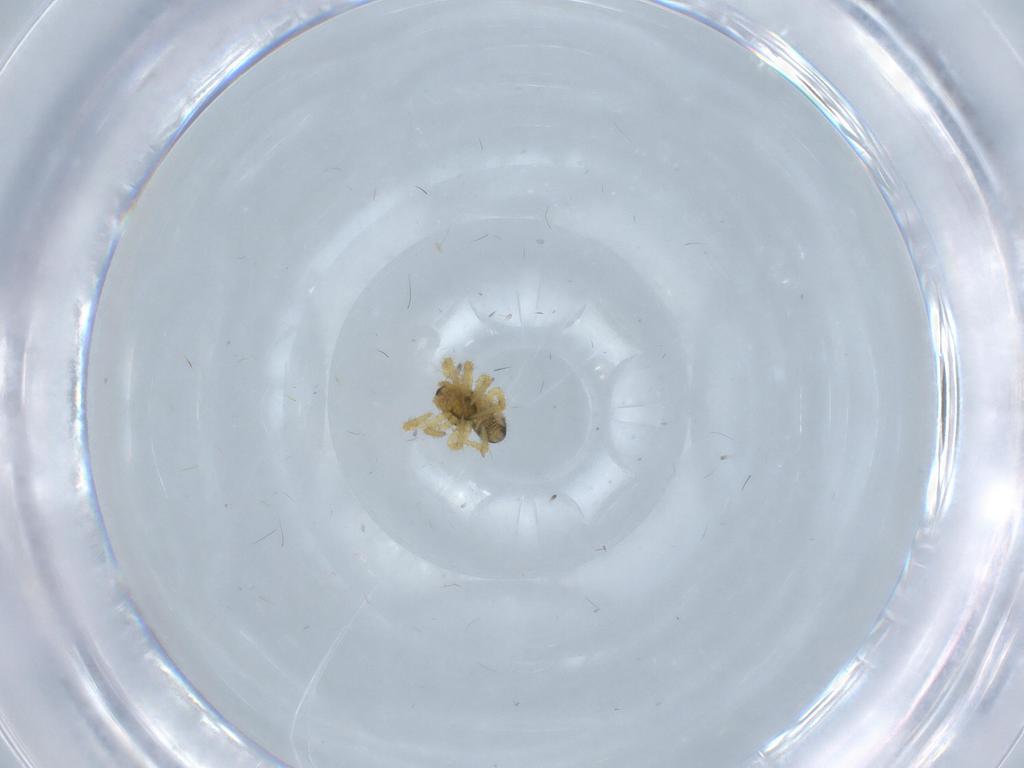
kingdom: Animalia
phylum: Arthropoda
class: Arachnida
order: Araneae
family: Theridiidae
